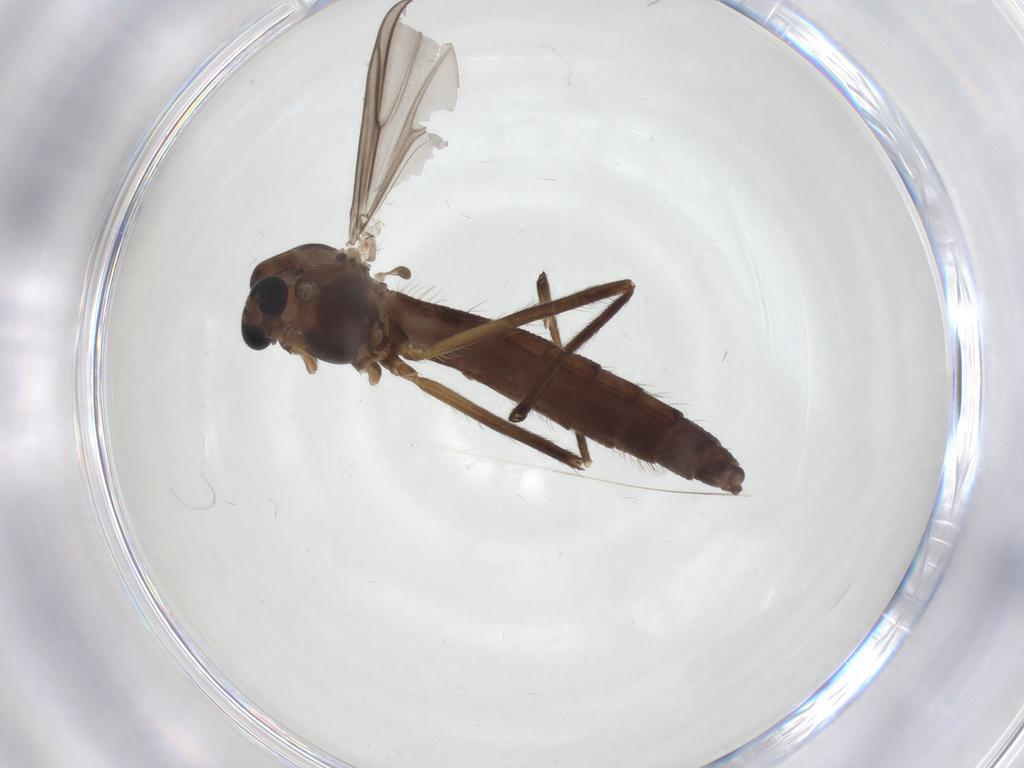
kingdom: Animalia
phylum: Arthropoda
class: Insecta
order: Diptera
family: Chironomidae
